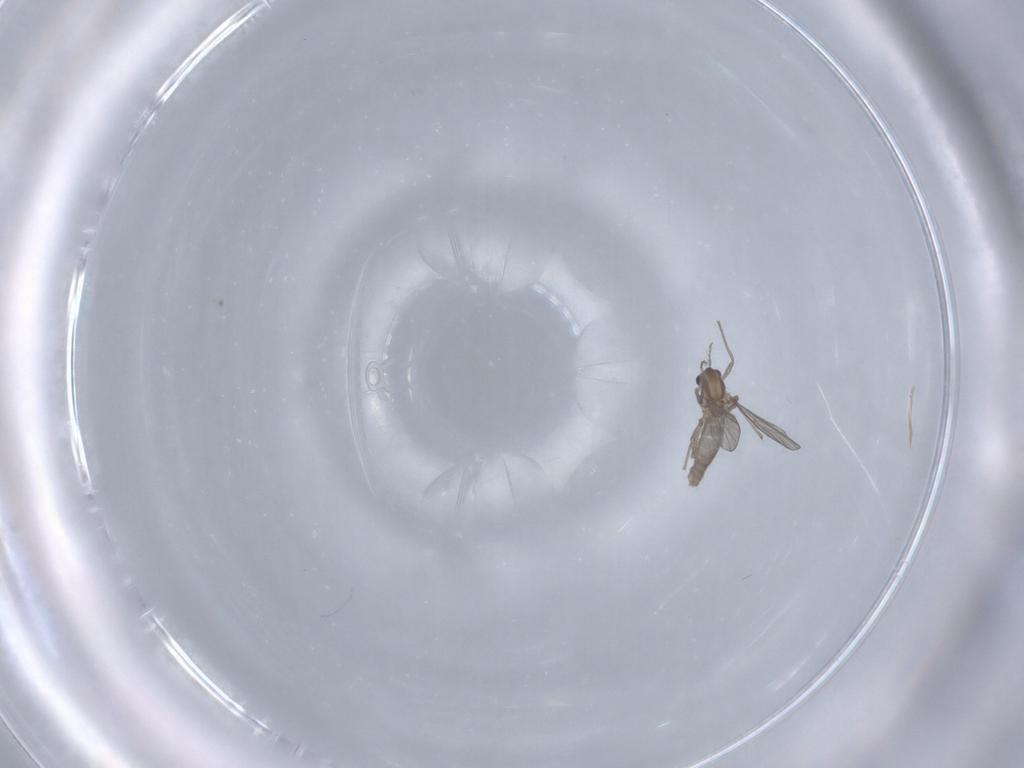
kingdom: Animalia
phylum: Arthropoda
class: Insecta
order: Diptera
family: Chironomidae
